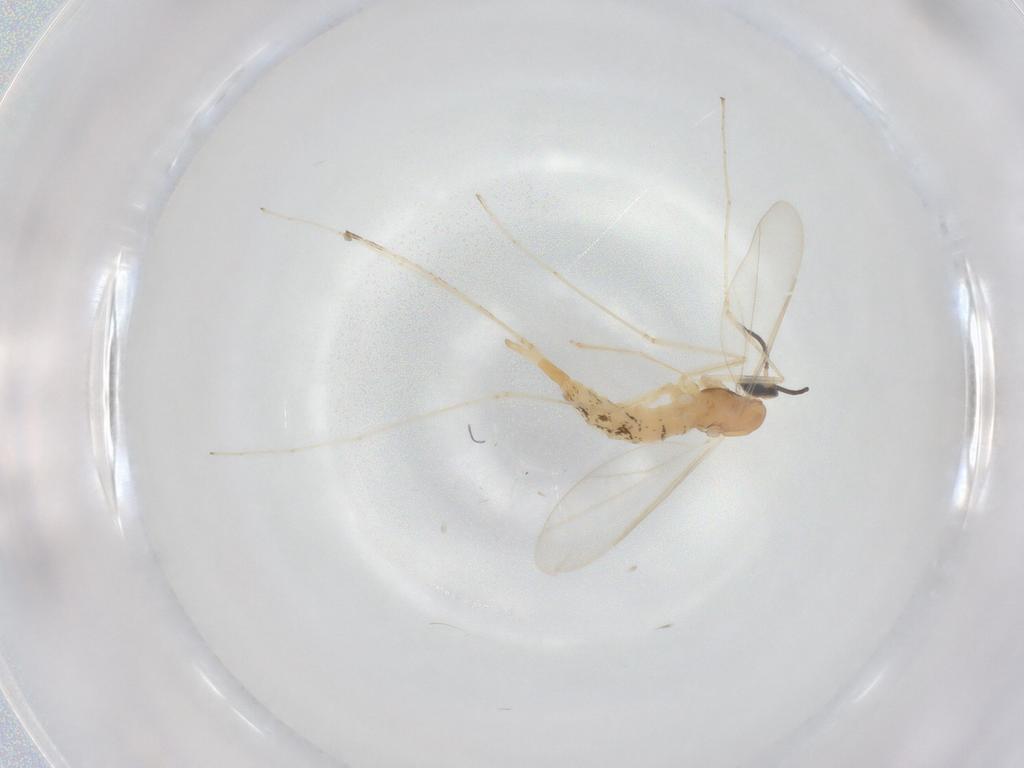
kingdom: Animalia
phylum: Arthropoda
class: Insecta
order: Diptera
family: Cecidomyiidae
